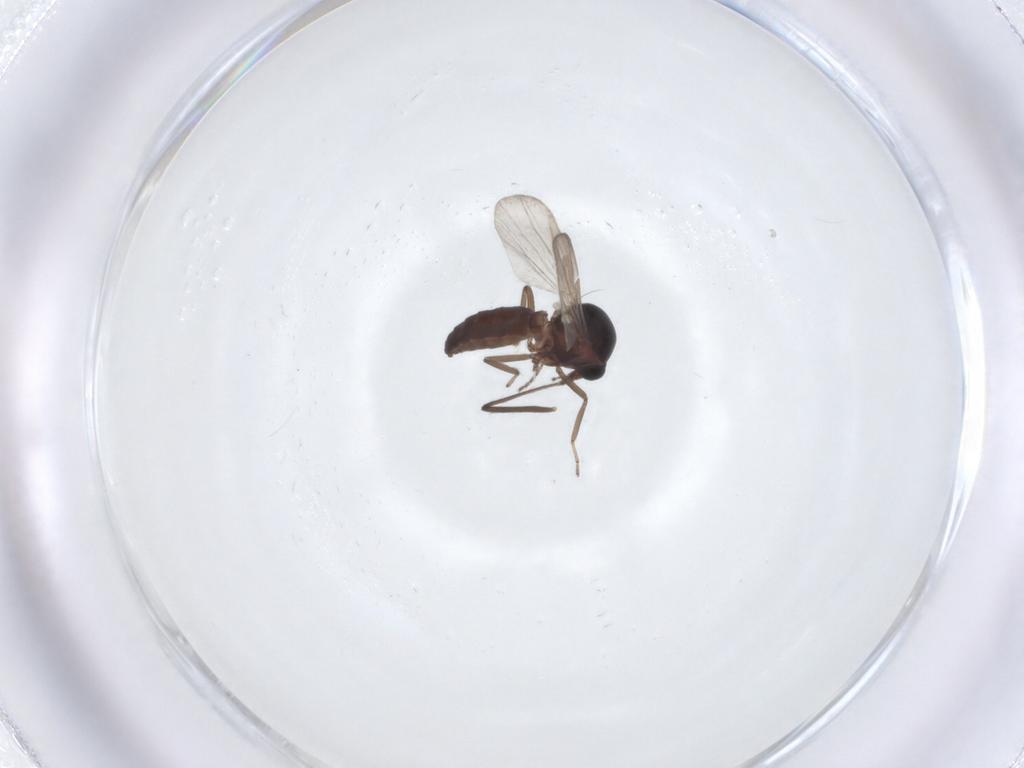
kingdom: Animalia
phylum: Arthropoda
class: Insecta
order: Diptera
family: Ceratopogonidae
